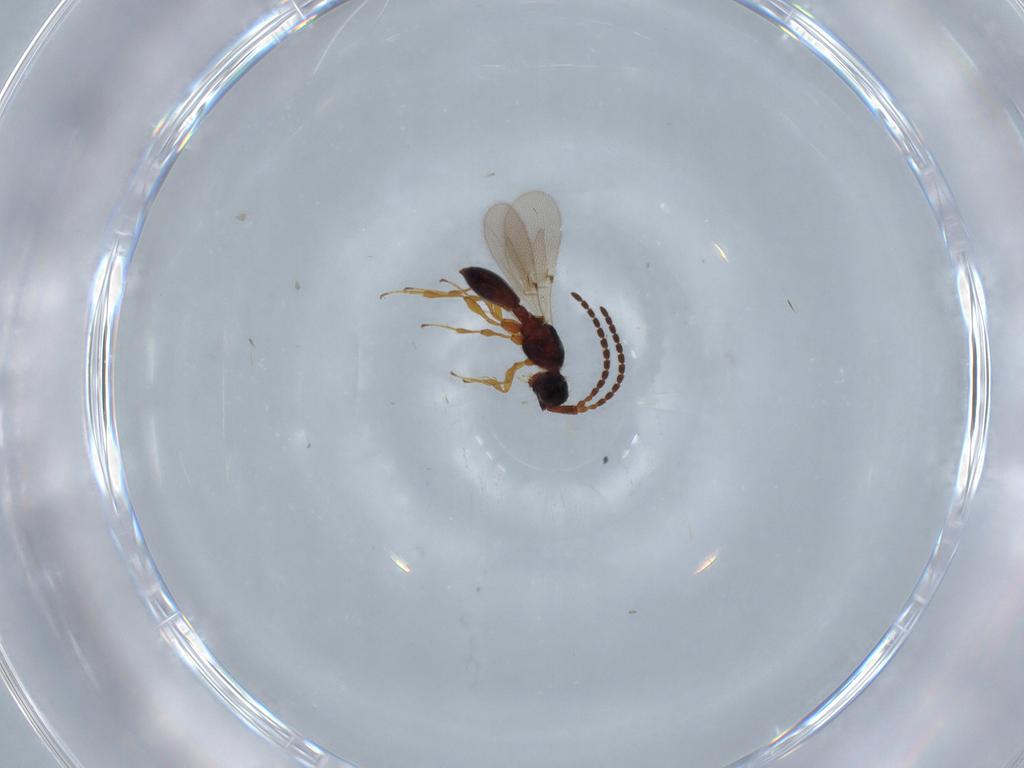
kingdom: Animalia
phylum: Arthropoda
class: Insecta
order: Hymenoptera
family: Figitidae
